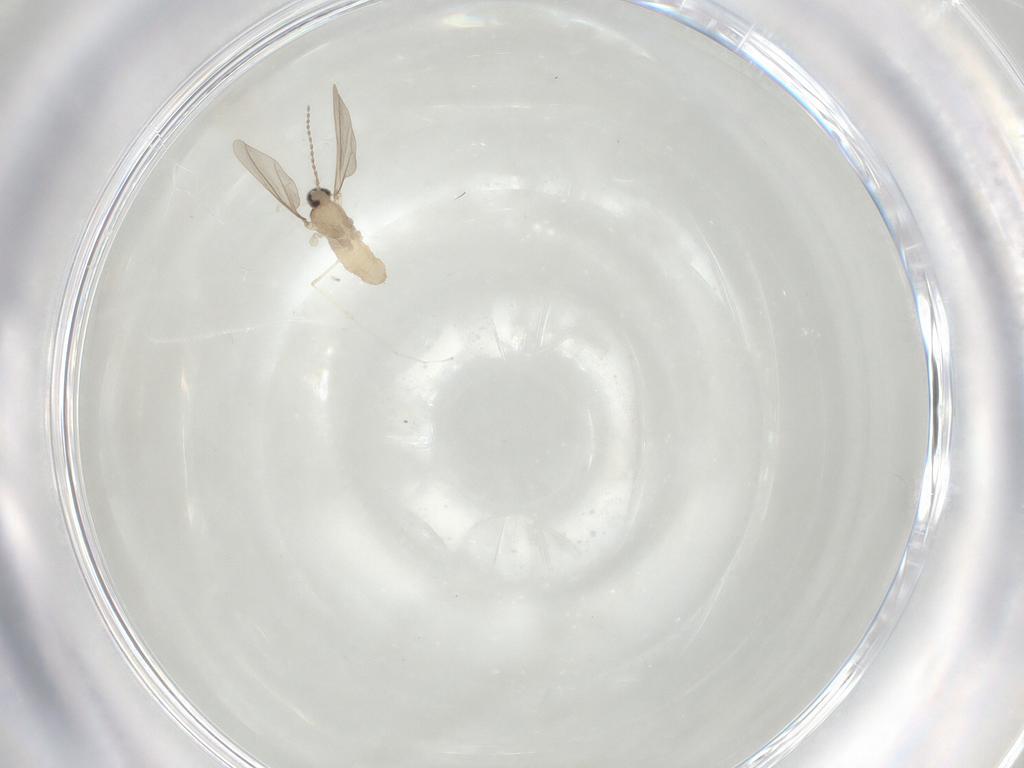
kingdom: Animalia
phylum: Arthropoda
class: Insecta
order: Diptera
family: Cecidomyiidae
